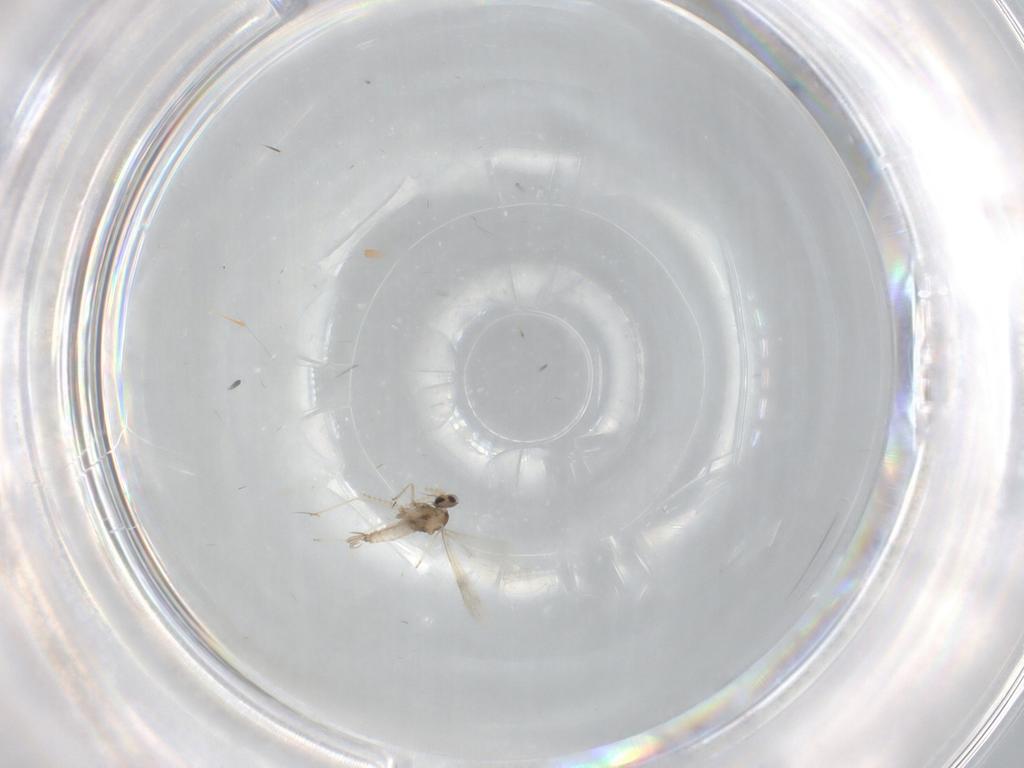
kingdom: Animalia
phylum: Arthropoda
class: Insecta
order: Diptera
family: Cecidomyiidae
